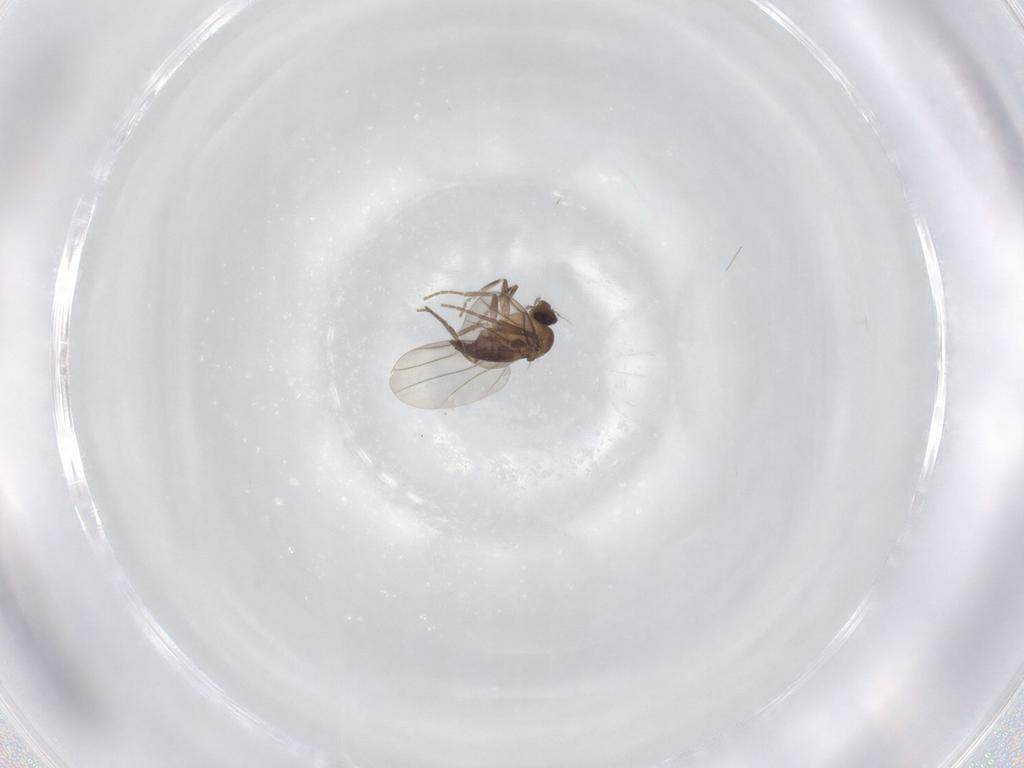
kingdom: Animalia
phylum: Arthropoda
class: Insecta
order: Diptera
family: Phoridae
